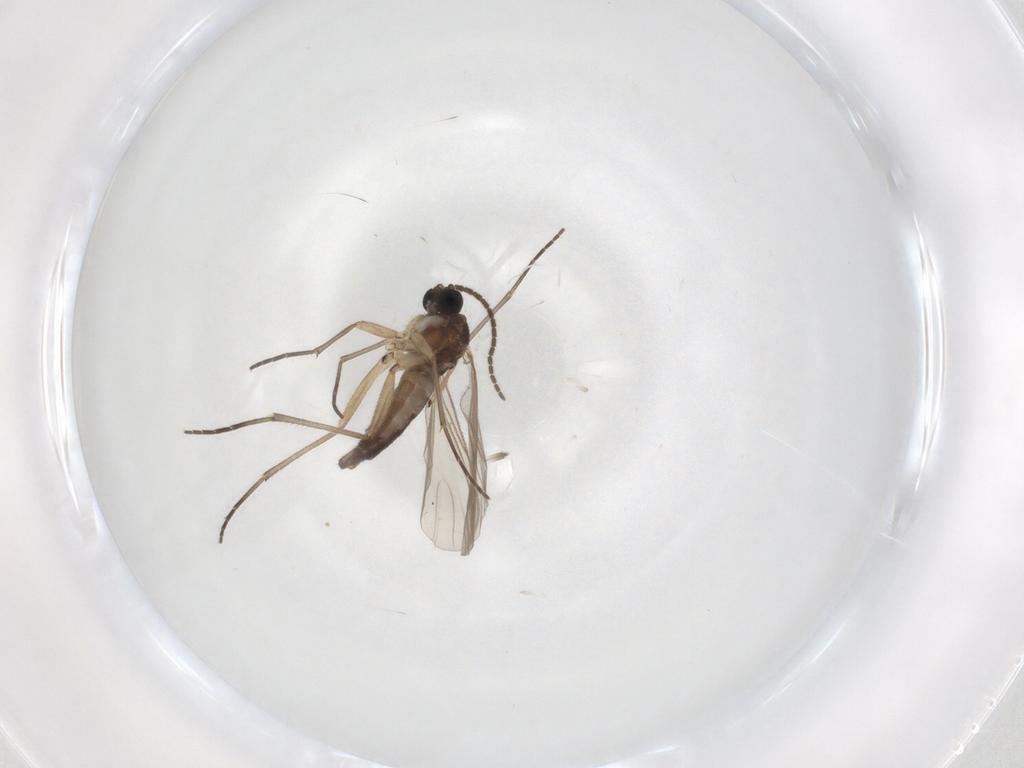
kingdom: Animalia
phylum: Arthropoda
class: Insecta
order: Diptera
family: Sciaridae
